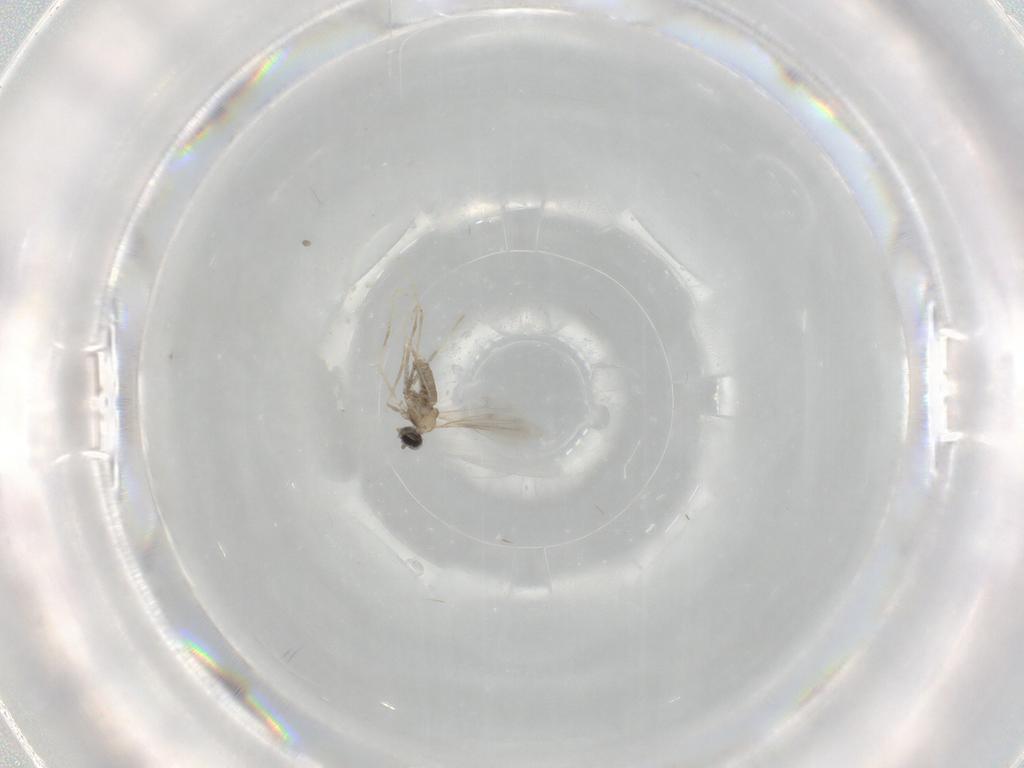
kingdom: Animalia
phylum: Arthropoda
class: Insecta
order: Diptera
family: Cecidomyiidae
